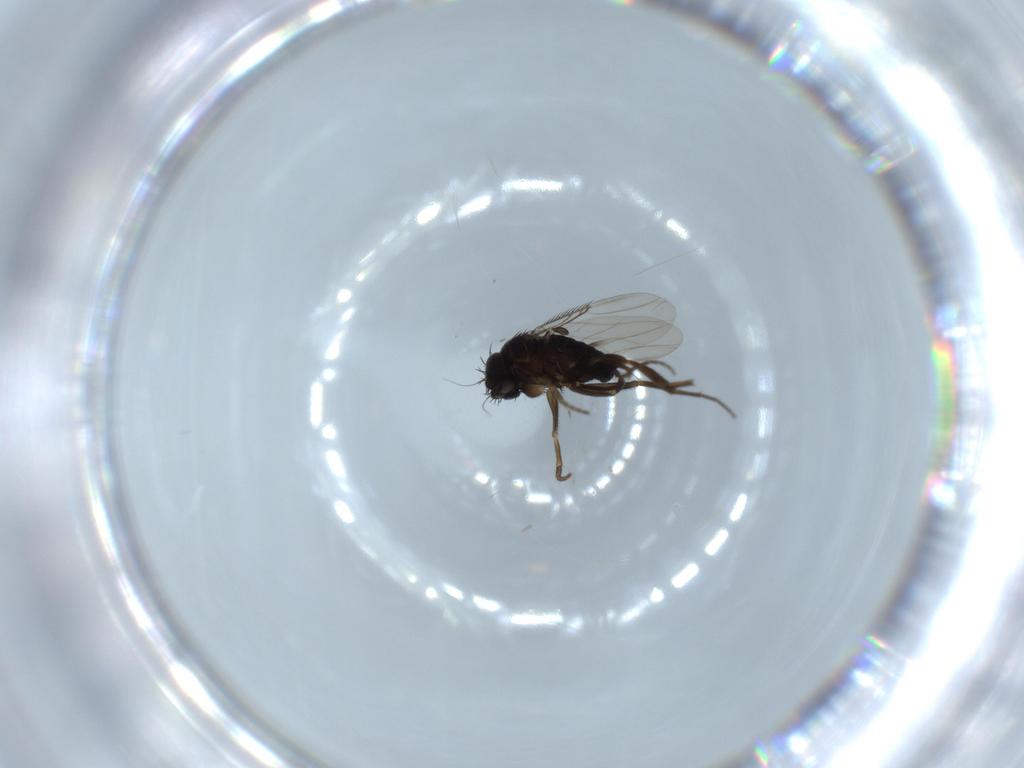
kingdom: Animalia
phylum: Arthropoda
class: Insecta
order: Diptera
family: Phoridae
